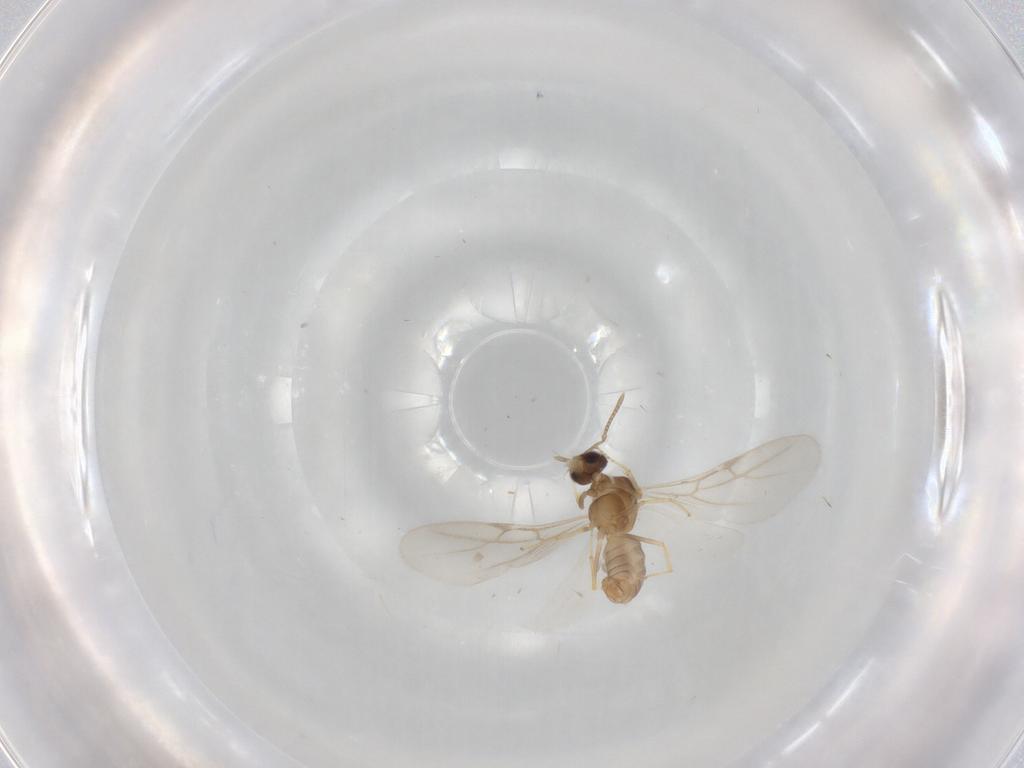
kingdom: Animalia
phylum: Arthropoda
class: Insecta
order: Hymenoptera
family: Formicidae
